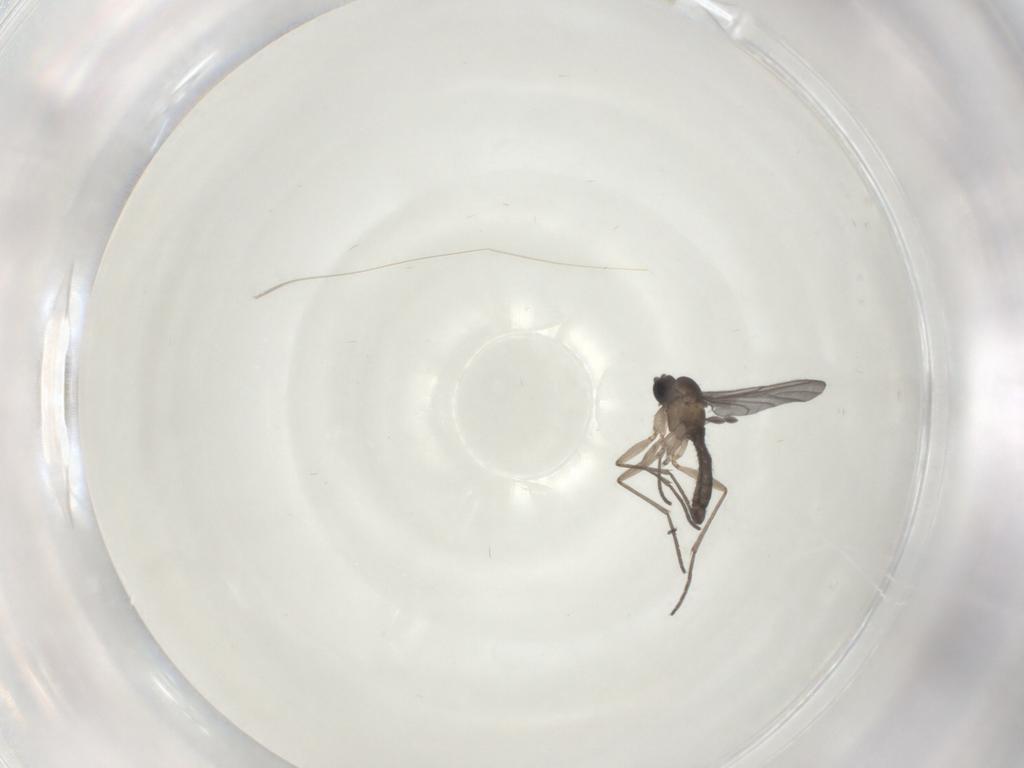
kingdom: Animalia
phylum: Arthropoda
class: Insecta
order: Diptera
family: Sciaridae
